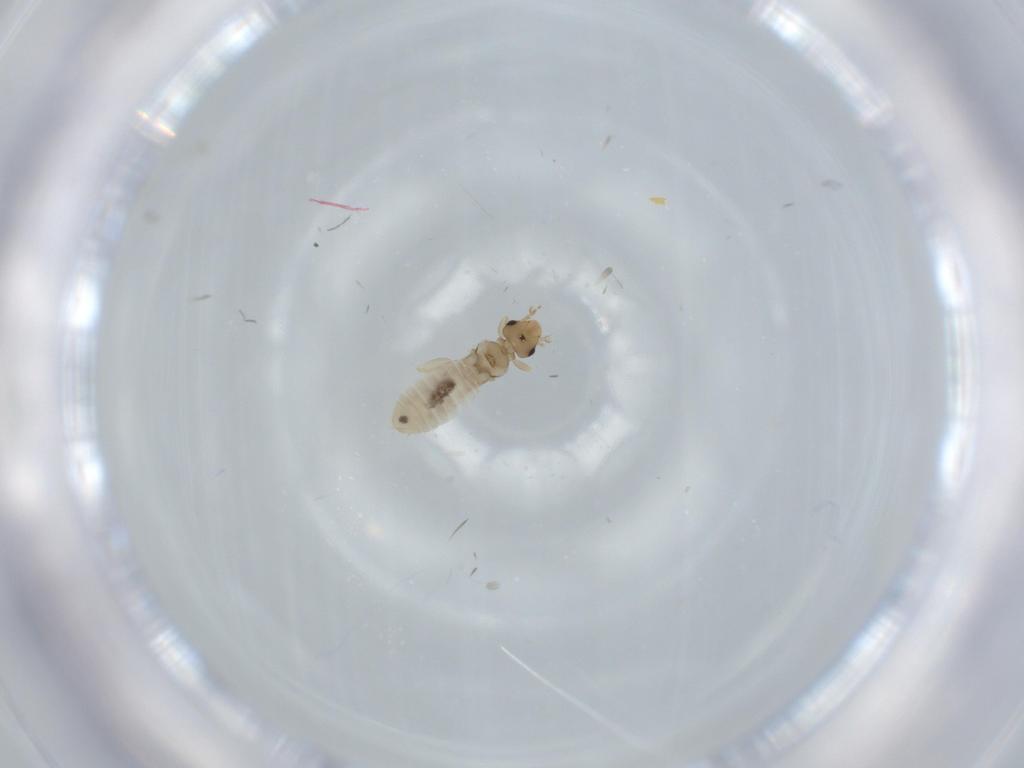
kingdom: Animalia
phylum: Arthropoda
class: Insecta
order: Psocodea
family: Liposcelididae
